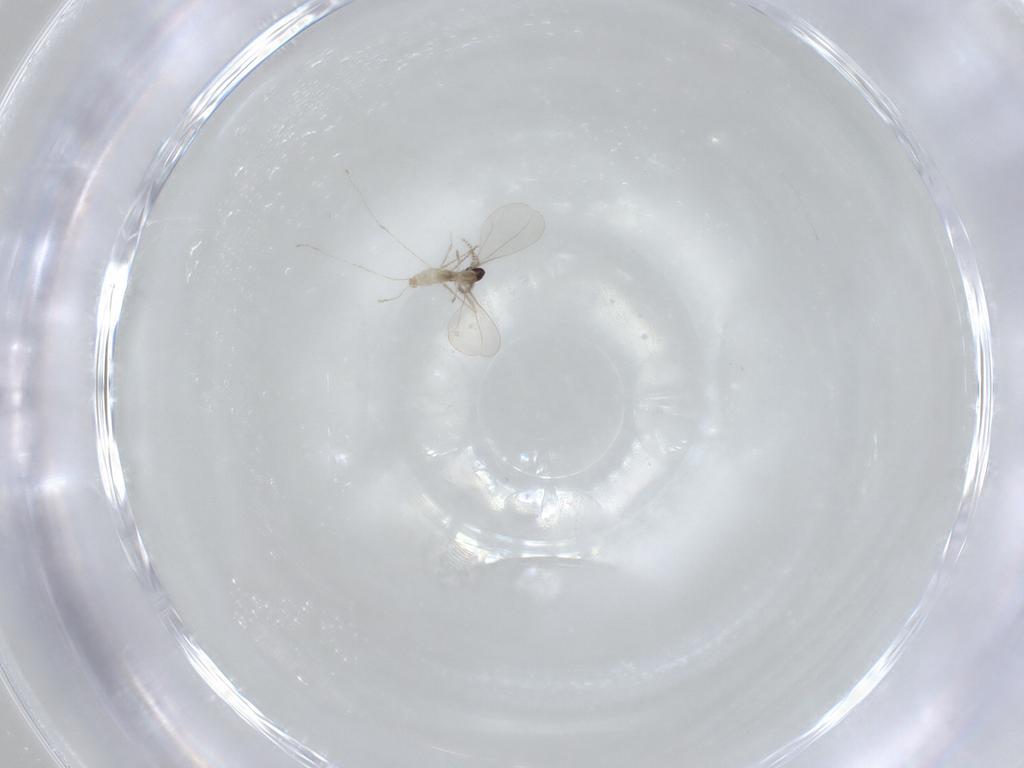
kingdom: Animalia
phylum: Arthropoda
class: Insecta
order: Diptera
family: Cecidomyiidae
